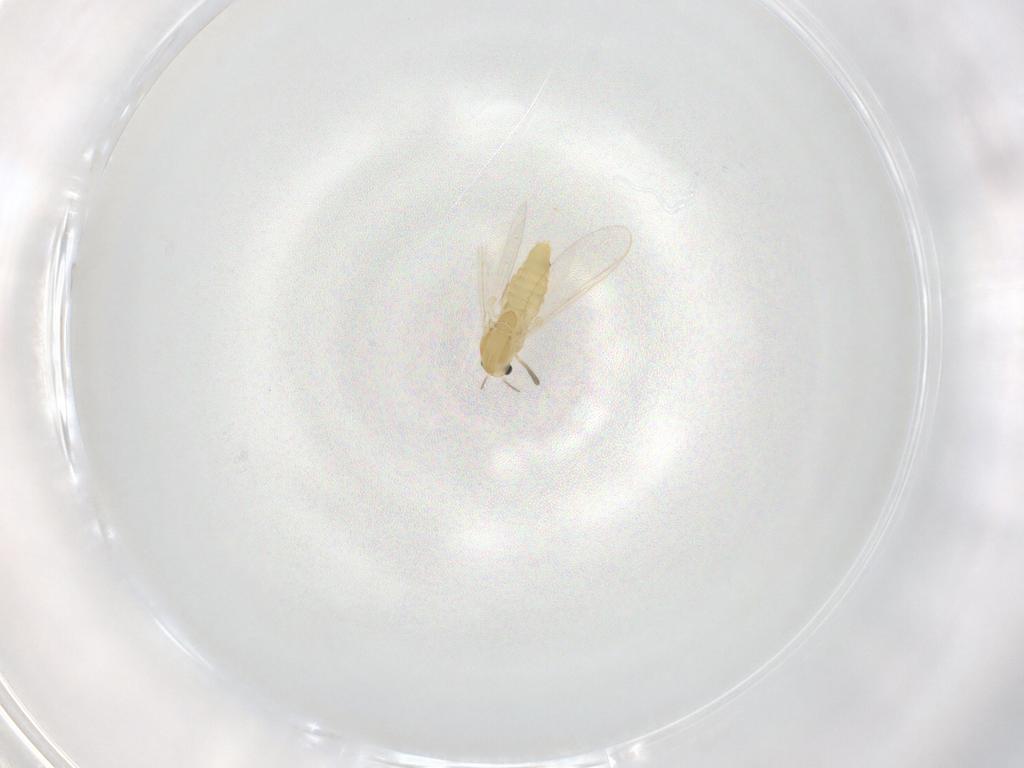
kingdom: Animalia
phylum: Arthropoda
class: Insecta
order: Diptera
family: Chironomidae
